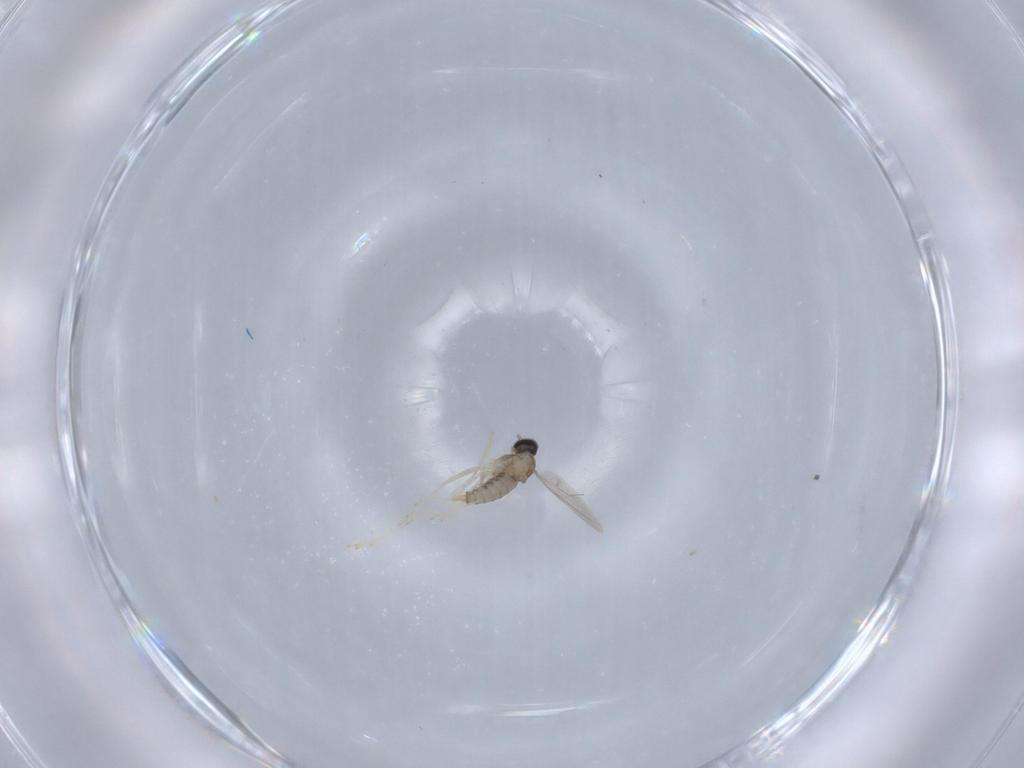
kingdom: Animalia
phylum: Arthropoda
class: Insecta
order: Diptera
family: Cecidomyiidae
